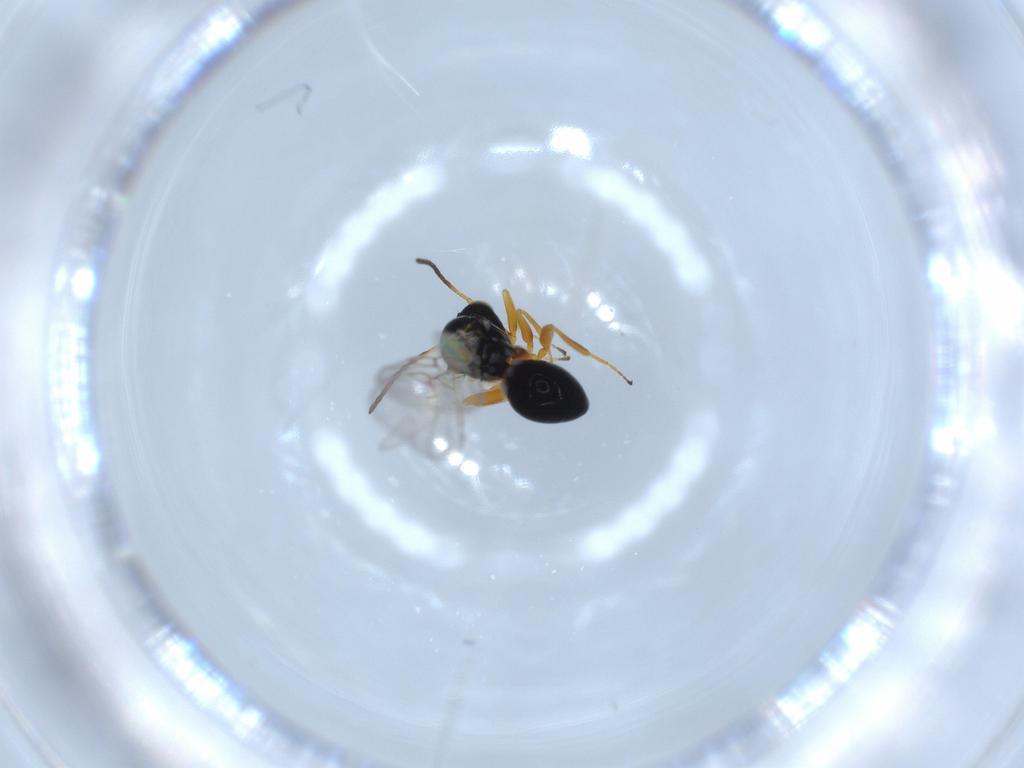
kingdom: Animalia
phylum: Arthropoda
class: Insecta
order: Hymenoptera
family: Figitidae
